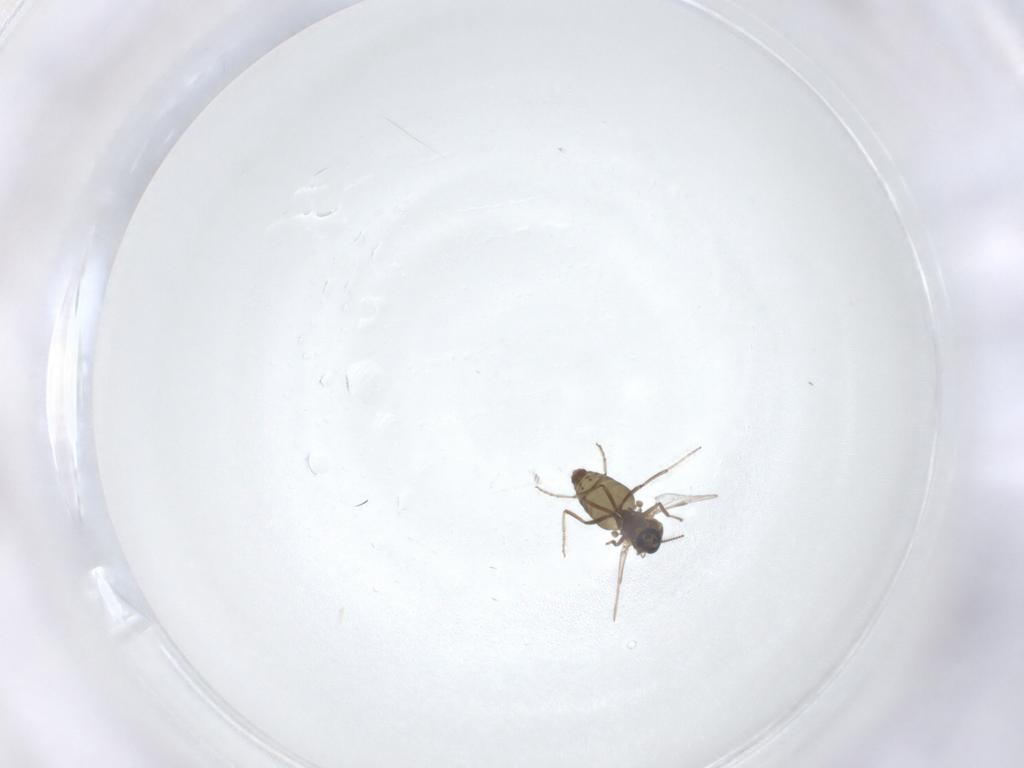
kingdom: Animalia
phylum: Arthropoda
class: Insecta
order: Diptera
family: Ceratopogonidae
